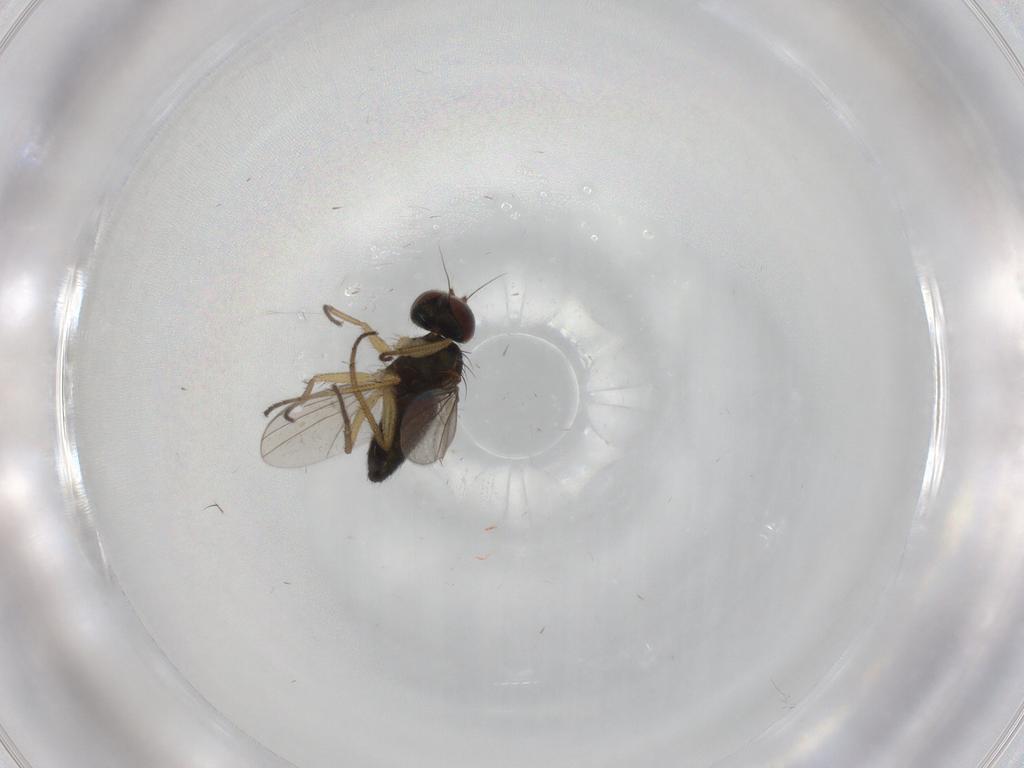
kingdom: Animalia
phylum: Arthropoda
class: Insecta
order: Diptera
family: Dolichopodidae
